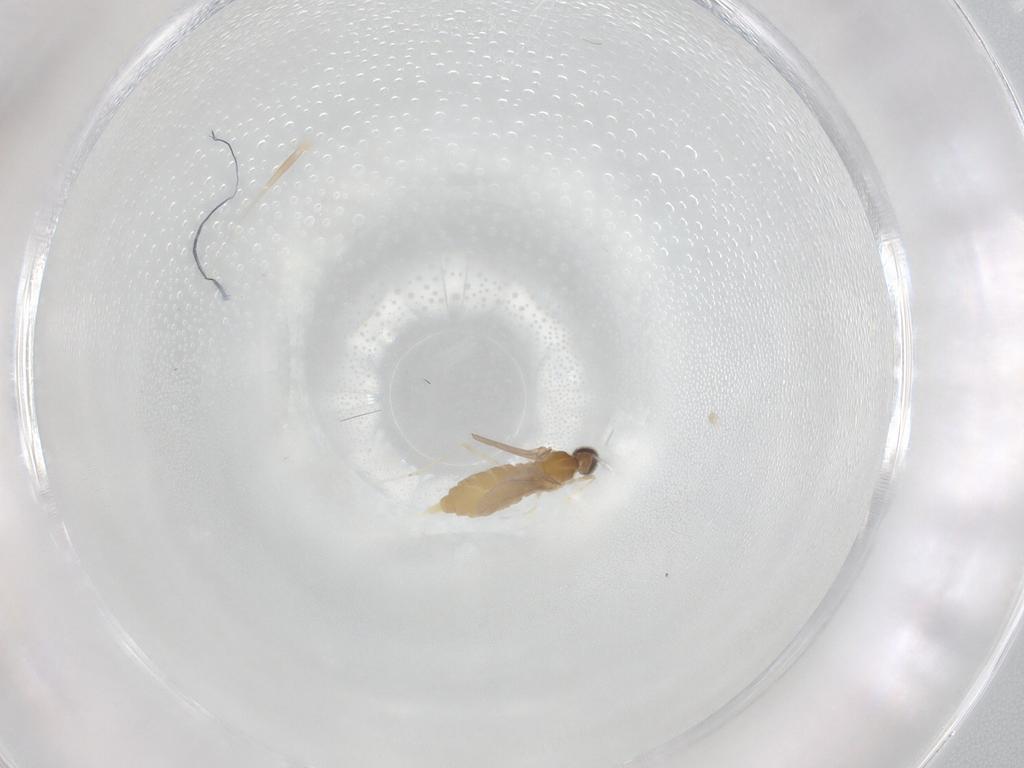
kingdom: Animalia
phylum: Arthropoda
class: Insecta
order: Diptera
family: Cecidomyiidae
